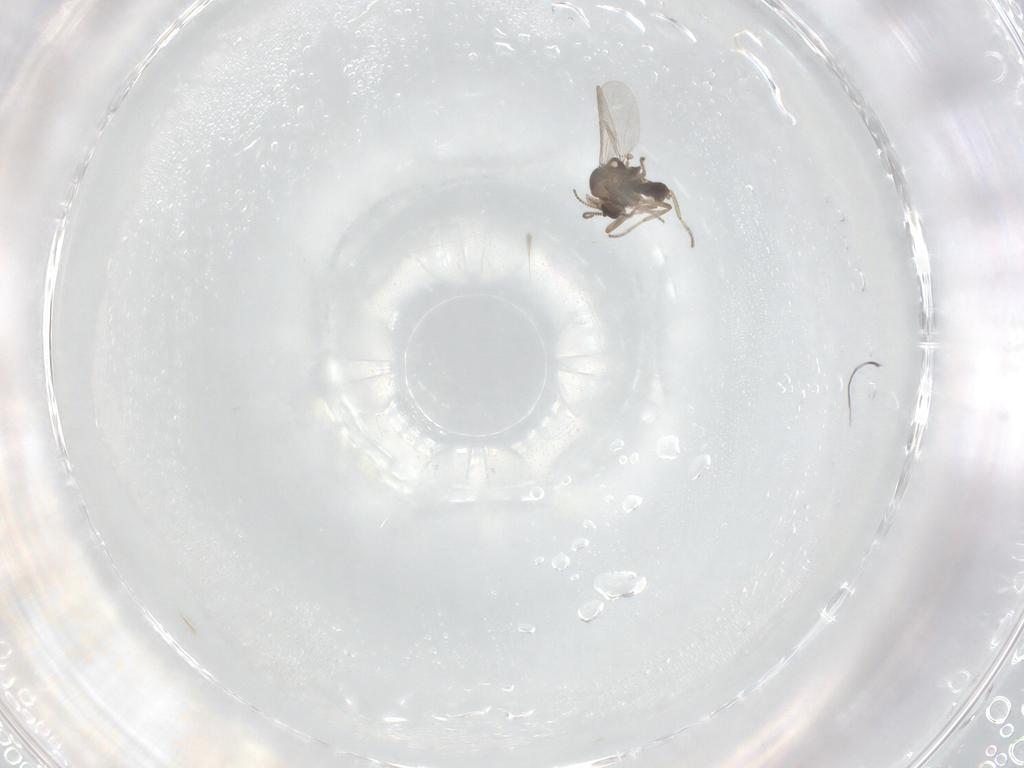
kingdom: Animalia
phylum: Arthropoda
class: Insecta
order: Diptera
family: Ceratopogonidae
